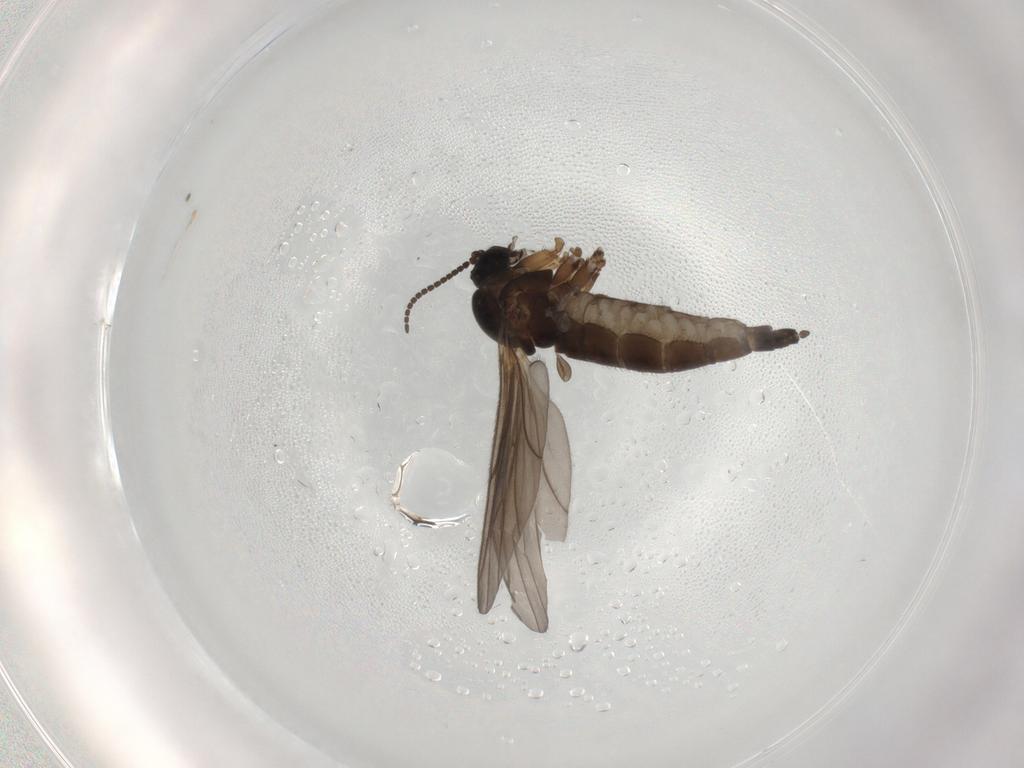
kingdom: Animalia
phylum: Arthropoda
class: Insecta
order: Diptera
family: Sciaridae
